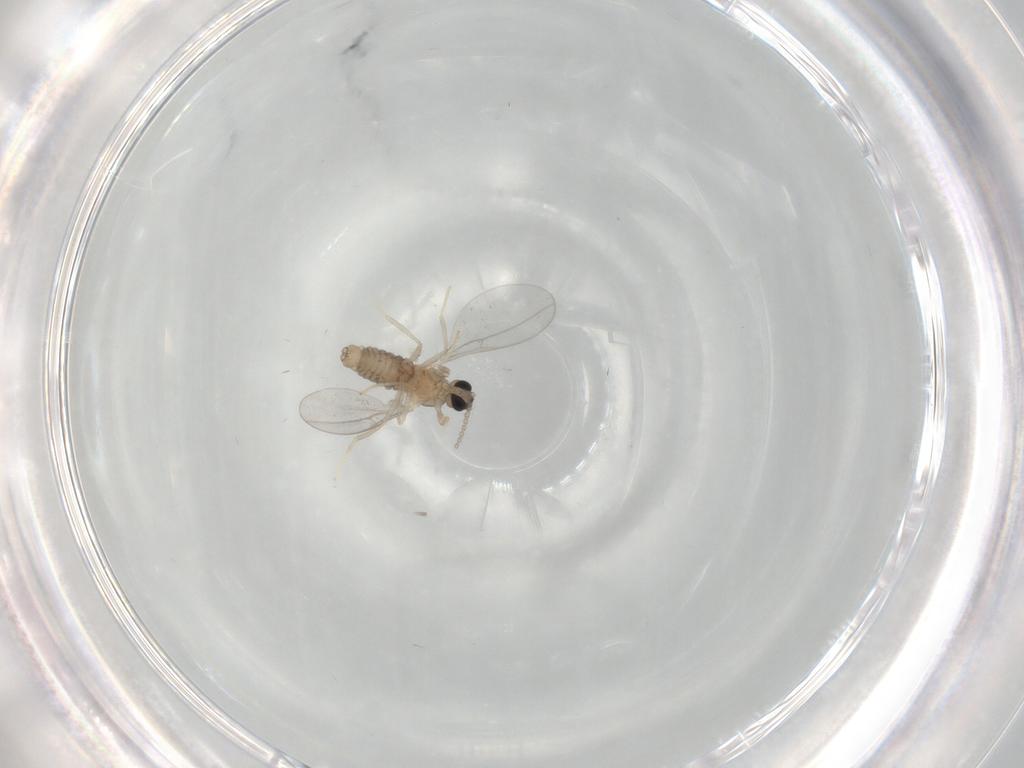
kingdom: Animalia
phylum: Arthropoda
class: Insecta
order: Diptera
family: Cecidomyiidae
